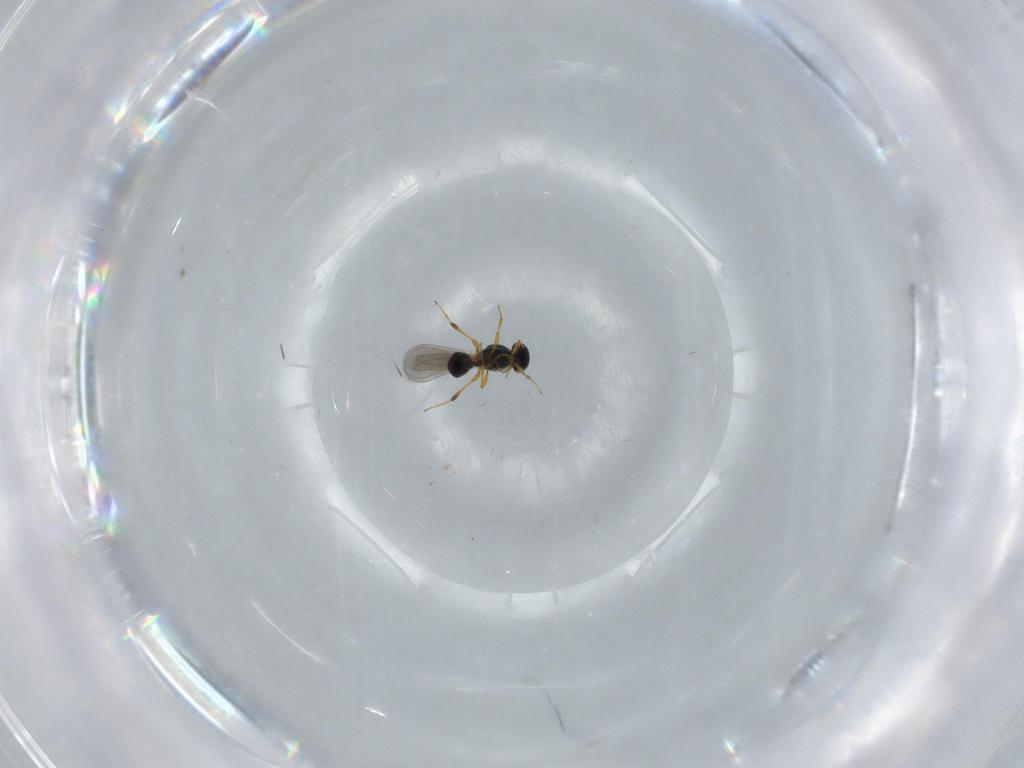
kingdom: Animalia
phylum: Arthropoda
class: Insecta
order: Hymenoptera
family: Platygastridae
